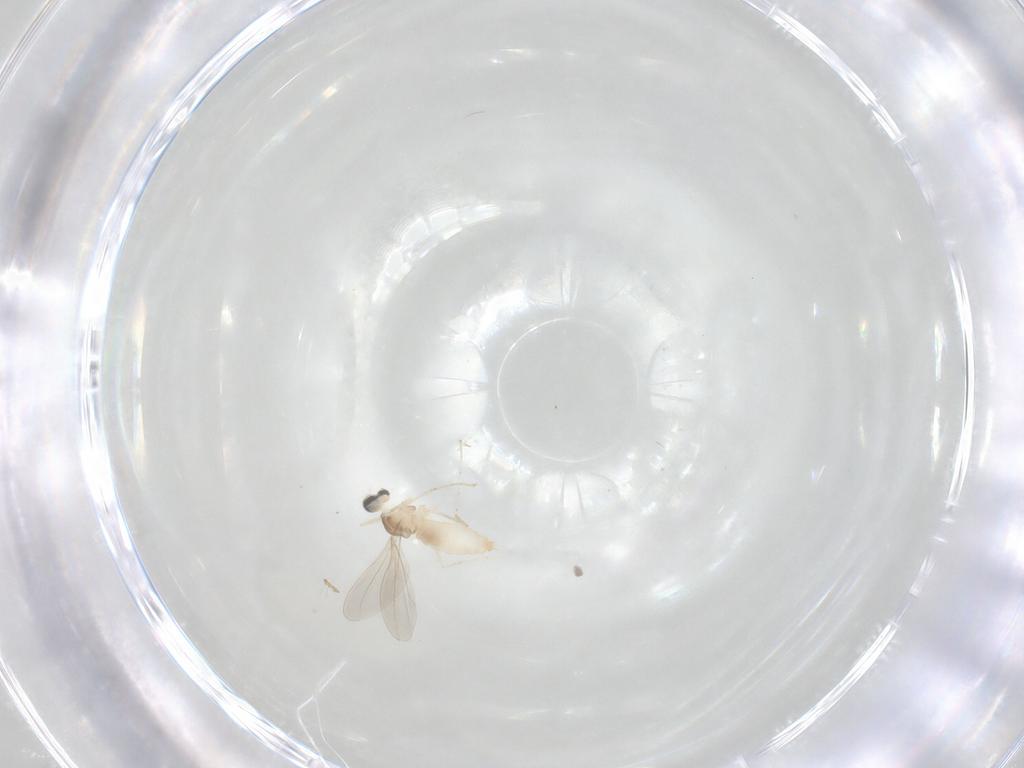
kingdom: Animalia
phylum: Arthropoda
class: Insecta
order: Diptera
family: Cecidomyiidae
